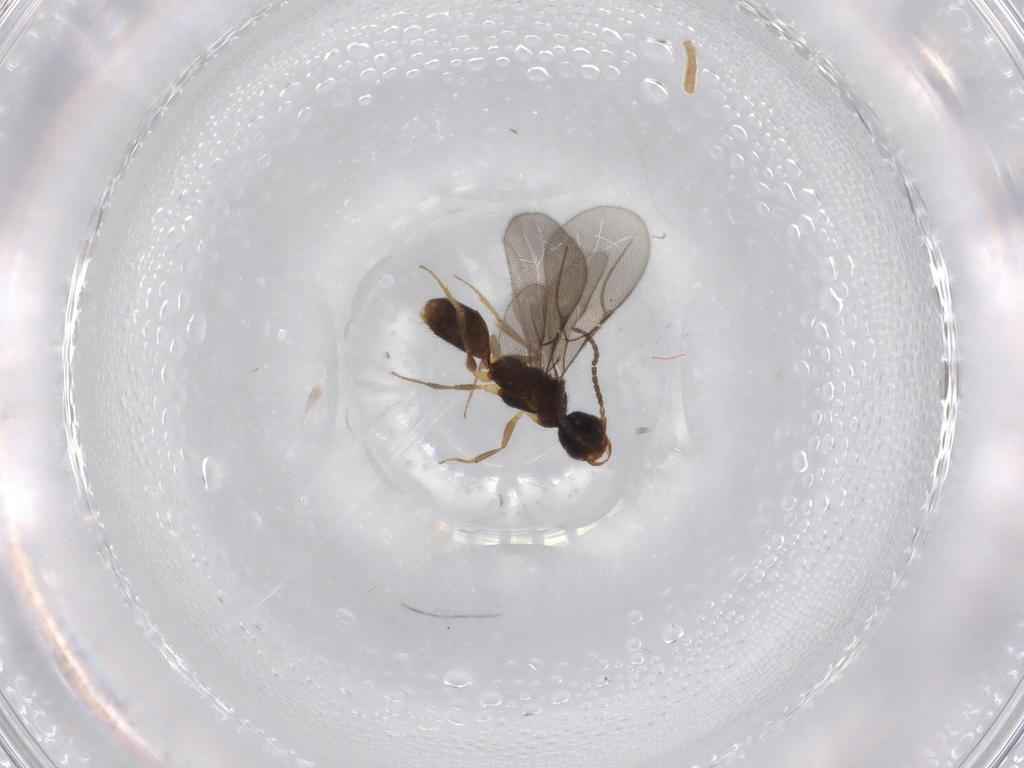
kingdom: Animalia
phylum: Arthropoda
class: Insecta
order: Hymenoptera
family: Bethylidae
